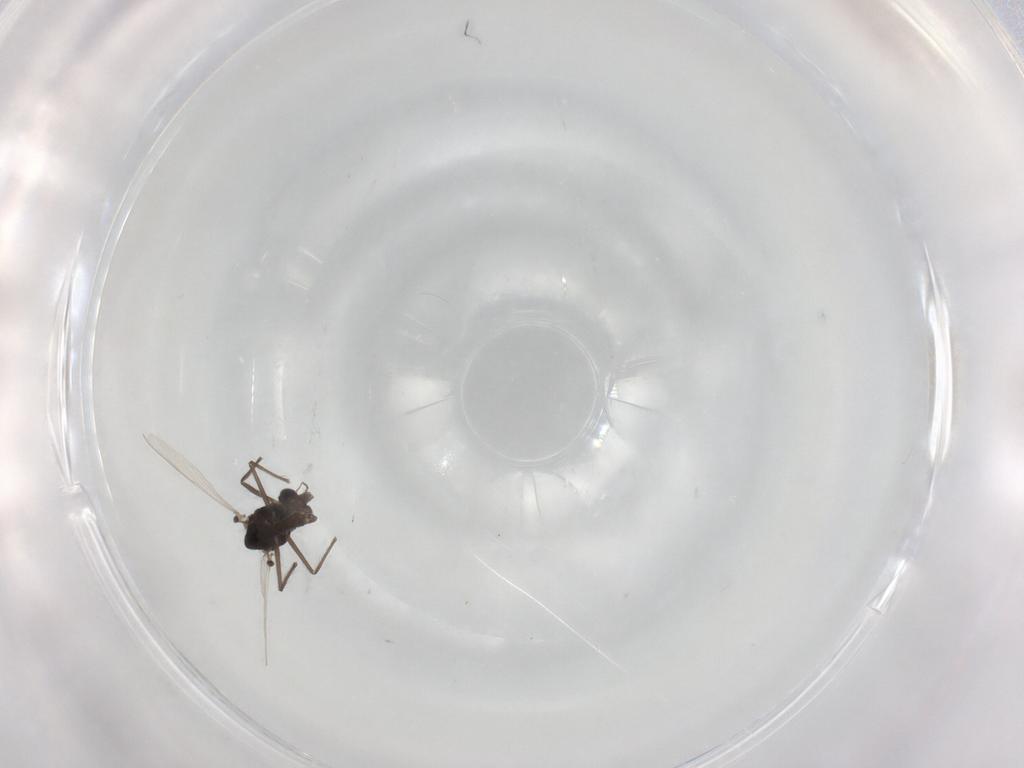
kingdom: Animalia
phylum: Arthropoda
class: Insecta
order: Diptera
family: Chironomidae
